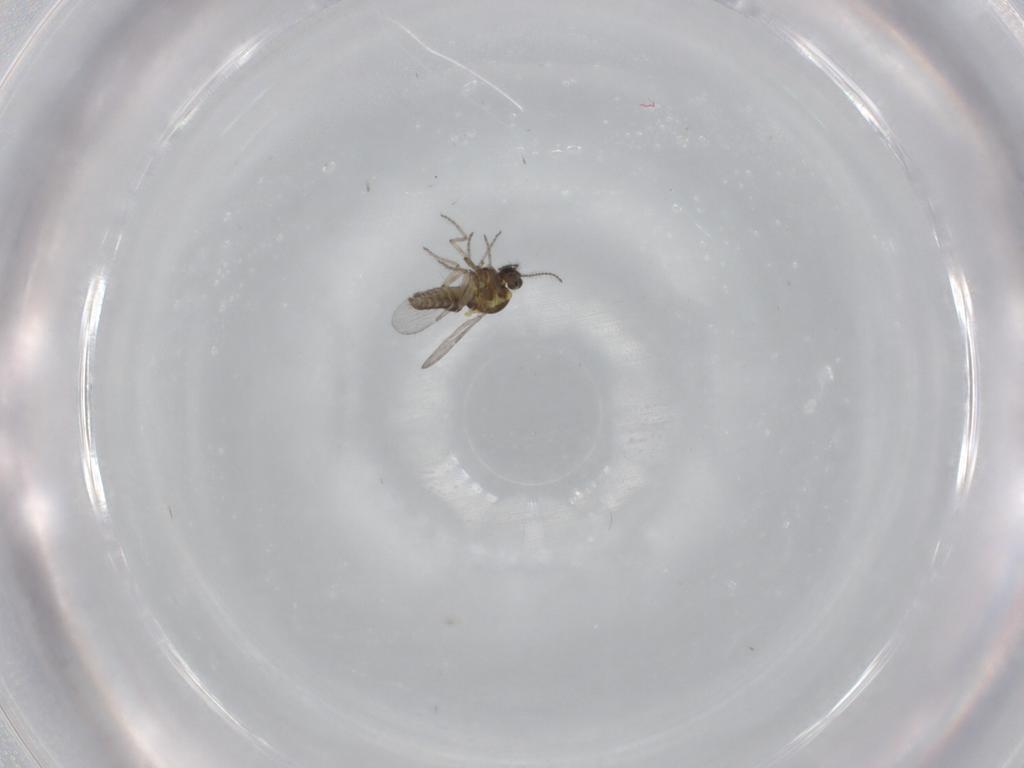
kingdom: Animalia
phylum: Arthropoda
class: Insecta
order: Diptera
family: Ceratopogonidae
